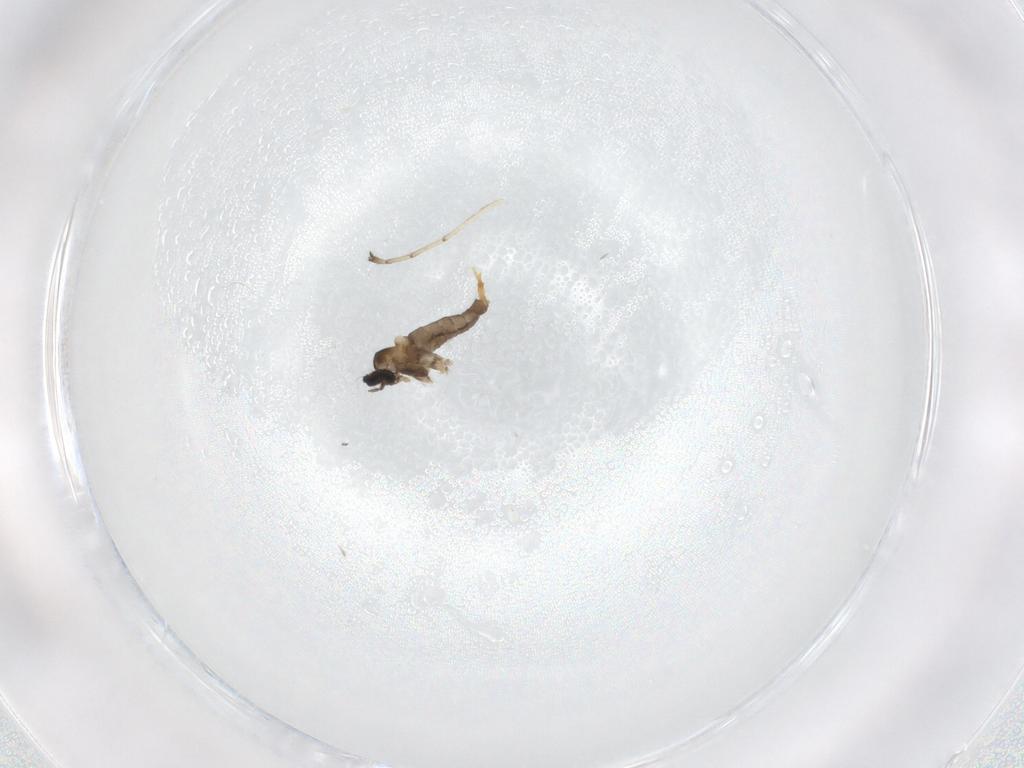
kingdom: Animalia
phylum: Arthropoda
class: Insecta
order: Diptera
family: Cecidomyiidae
